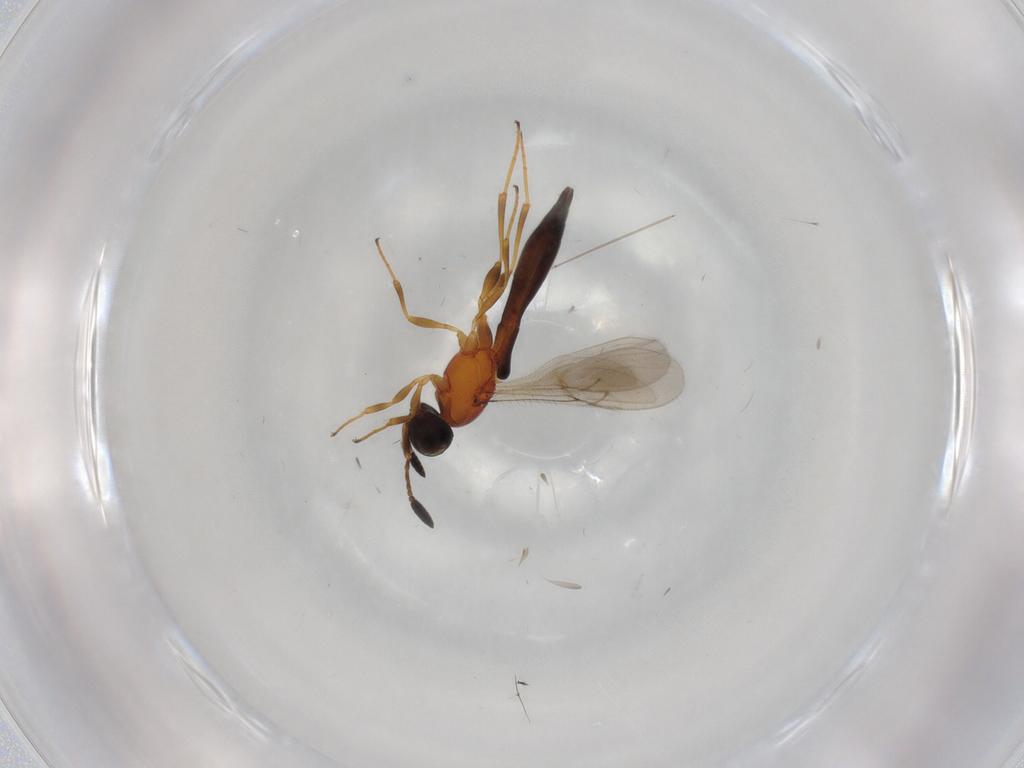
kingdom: Animalia
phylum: Arthropoda
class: Insecta
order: Hymenoptera
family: Scelionidae
